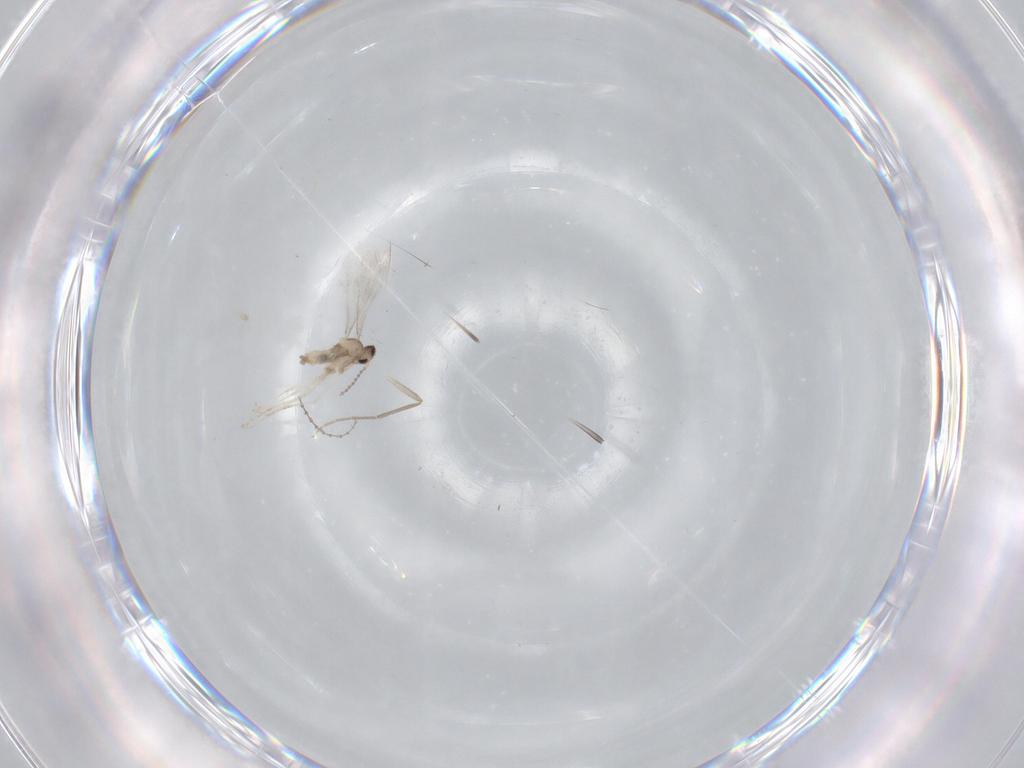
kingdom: Animalia
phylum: Arthropoda
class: Insecta
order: Diptera
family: Chironomidae
